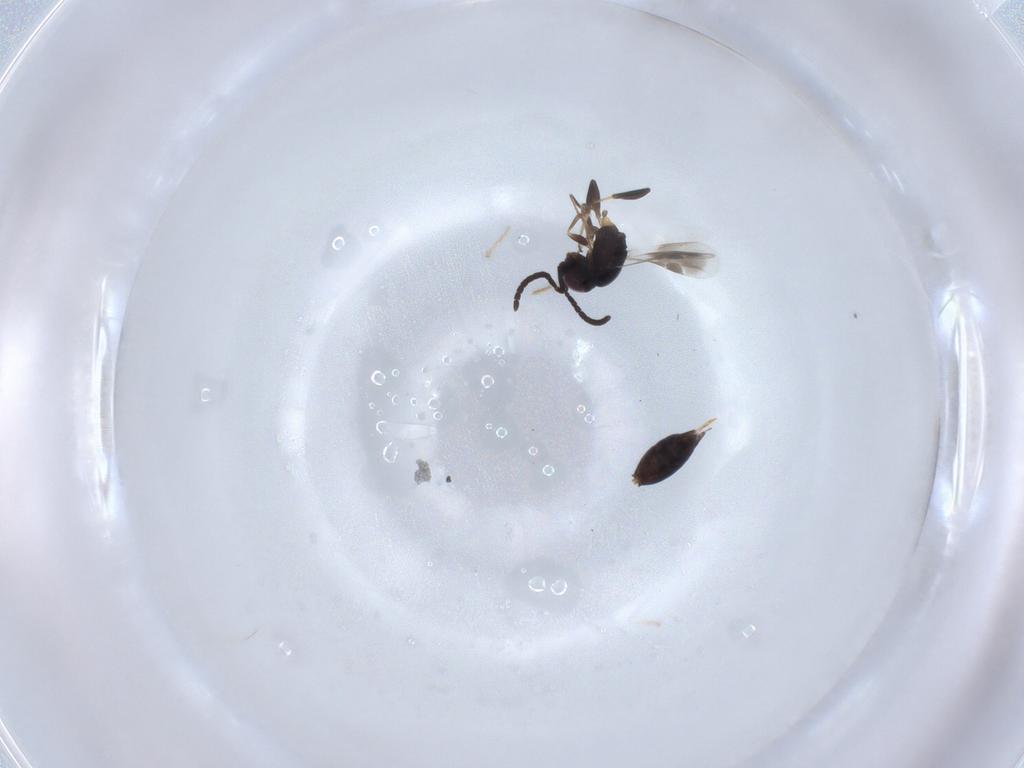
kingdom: Animalia
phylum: Arthropoda
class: Insecta
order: Hymenoptera
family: Megaspilidae
